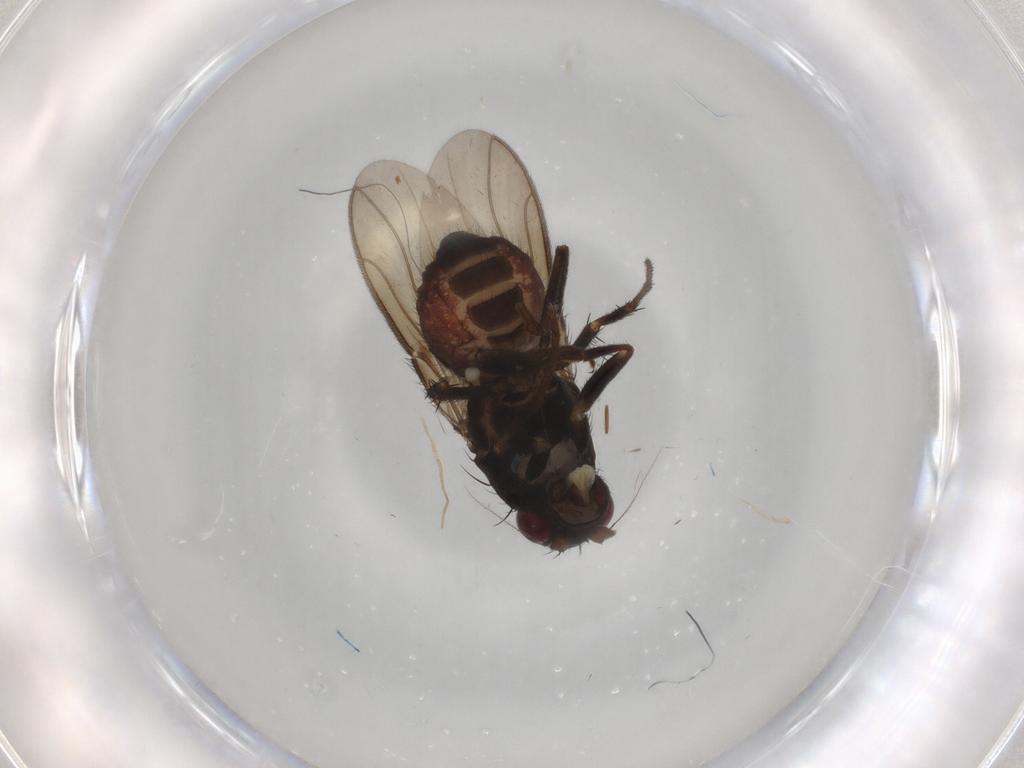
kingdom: Animalia
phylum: Arthropoda
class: Insecta
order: Diptera
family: Sphaeroceridae
